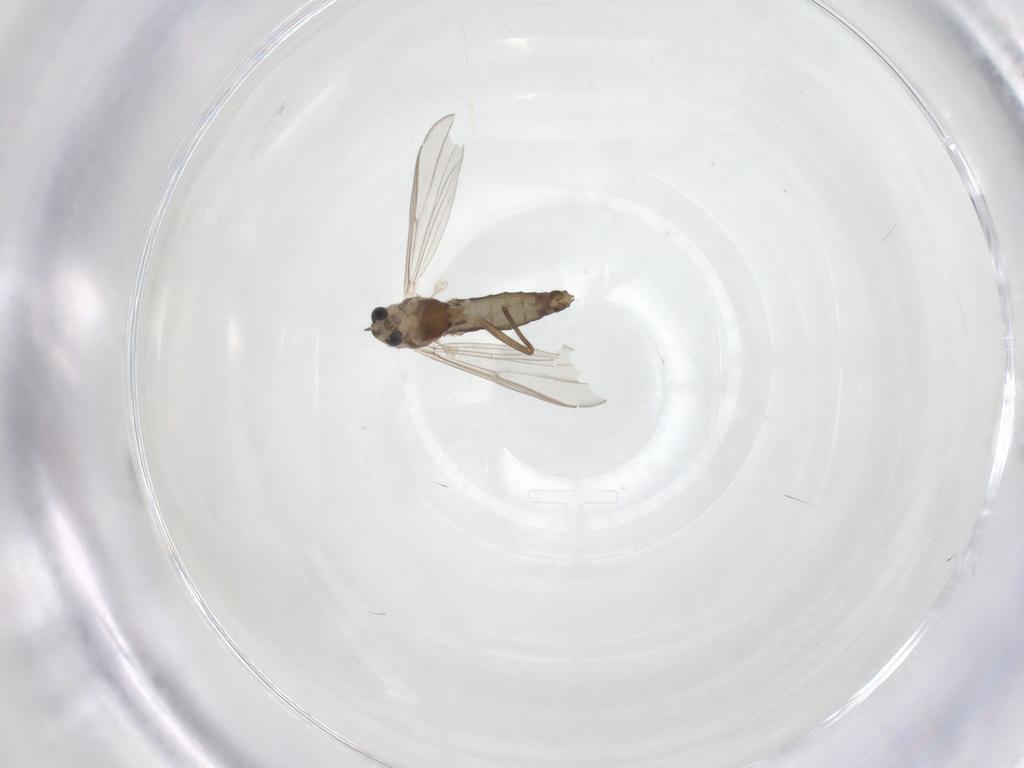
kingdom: Animalia
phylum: Arthropoda
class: Insecta
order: Diptera
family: Chironomidae
